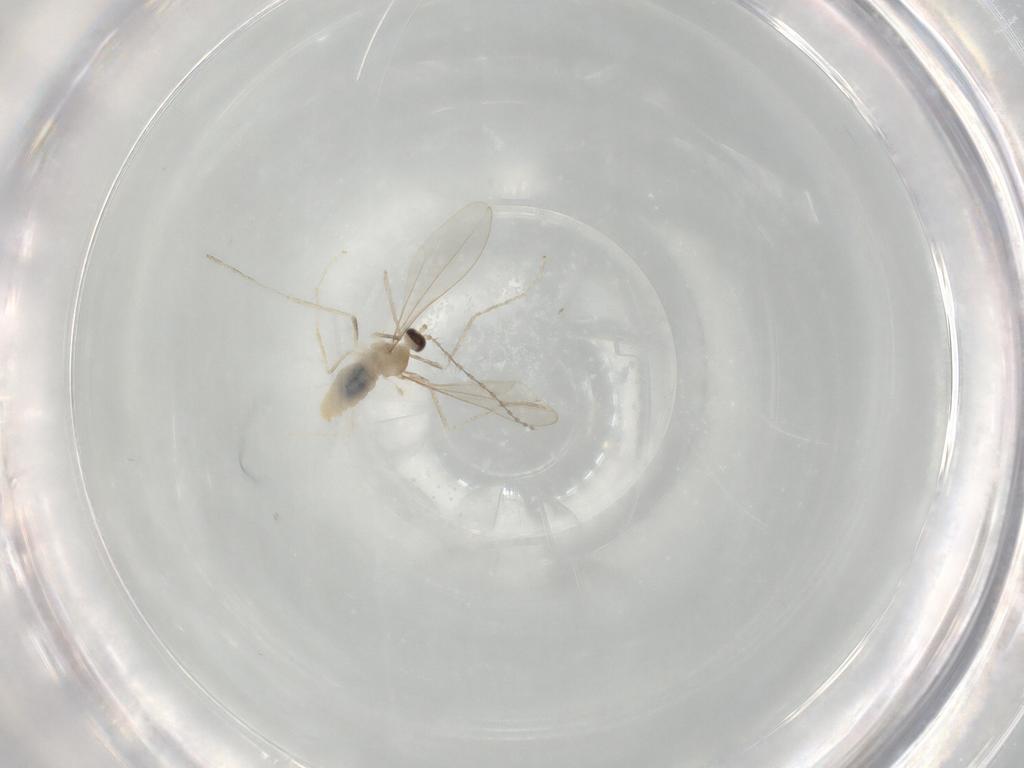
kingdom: Animalia
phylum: Arthropoda
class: Insecta
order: Diptera
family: Cecidomyiidae
